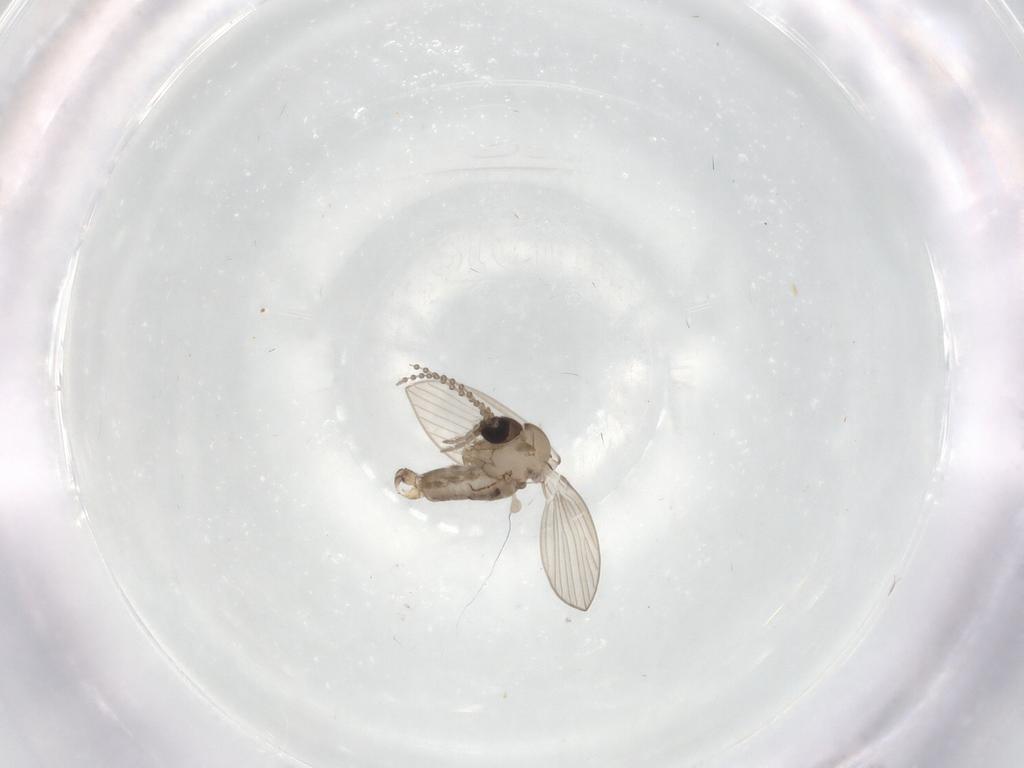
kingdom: Animalia
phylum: Arthropoda
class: Insecta
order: Diptera
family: Psychodidae
